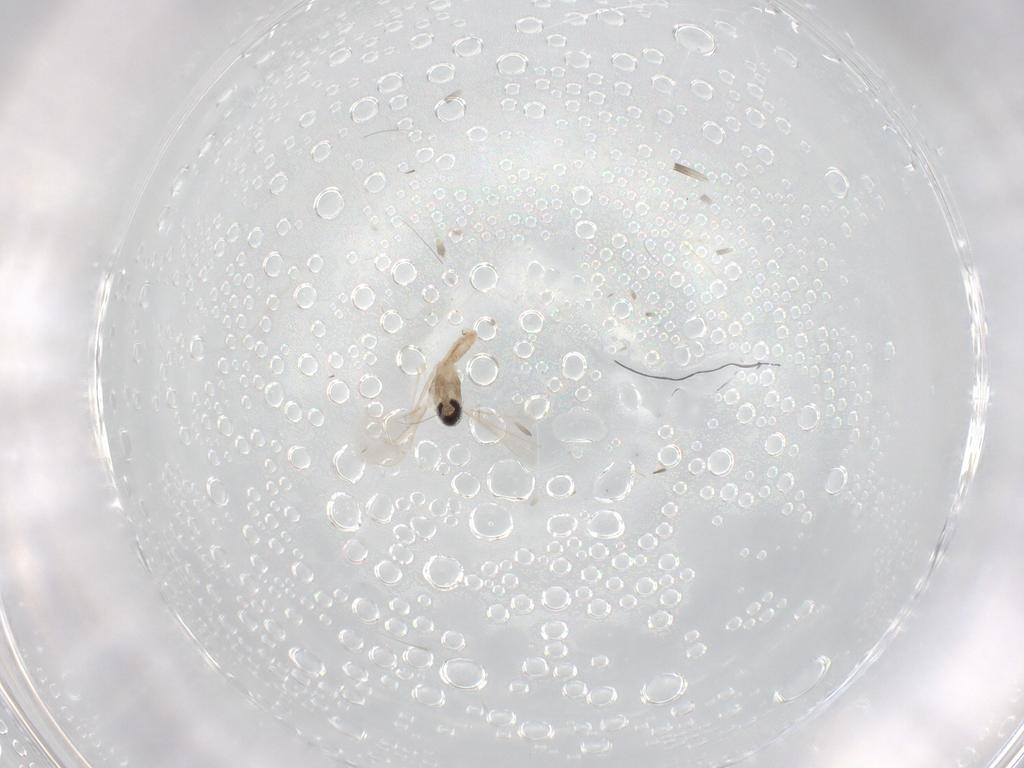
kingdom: Animalia
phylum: Arthropoda
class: Insecta
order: Diptera
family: Cecidomyiidae
